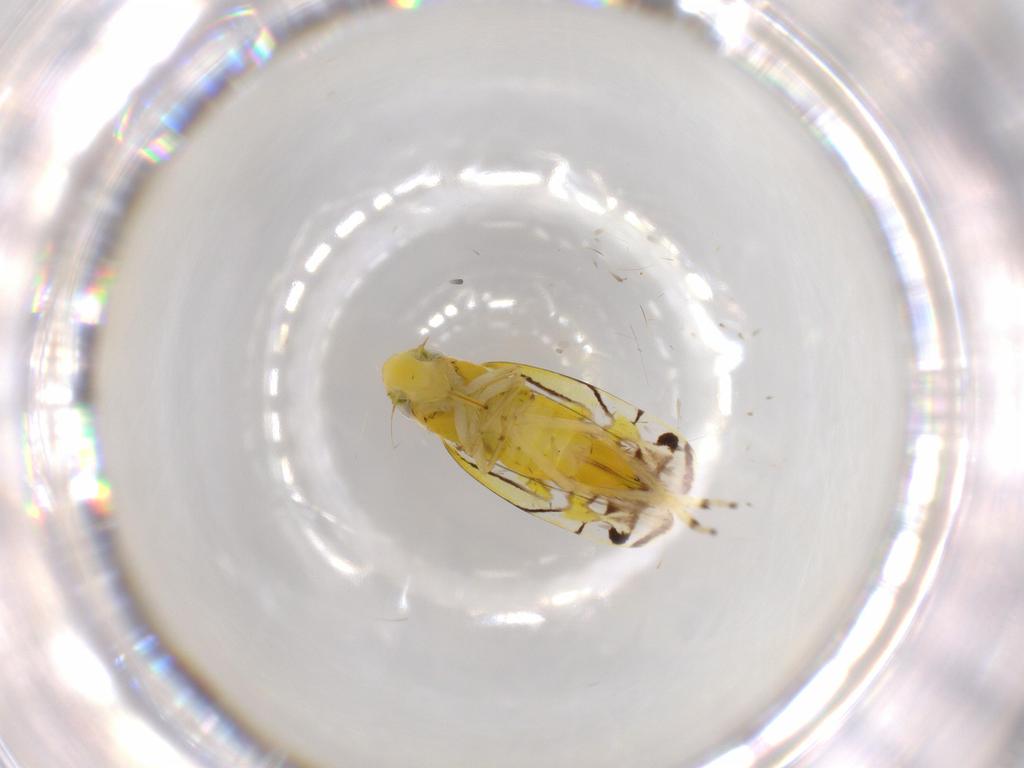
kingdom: Animalia
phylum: Arthropoda
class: Insecta
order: Hemiptera
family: Cicadellidae
